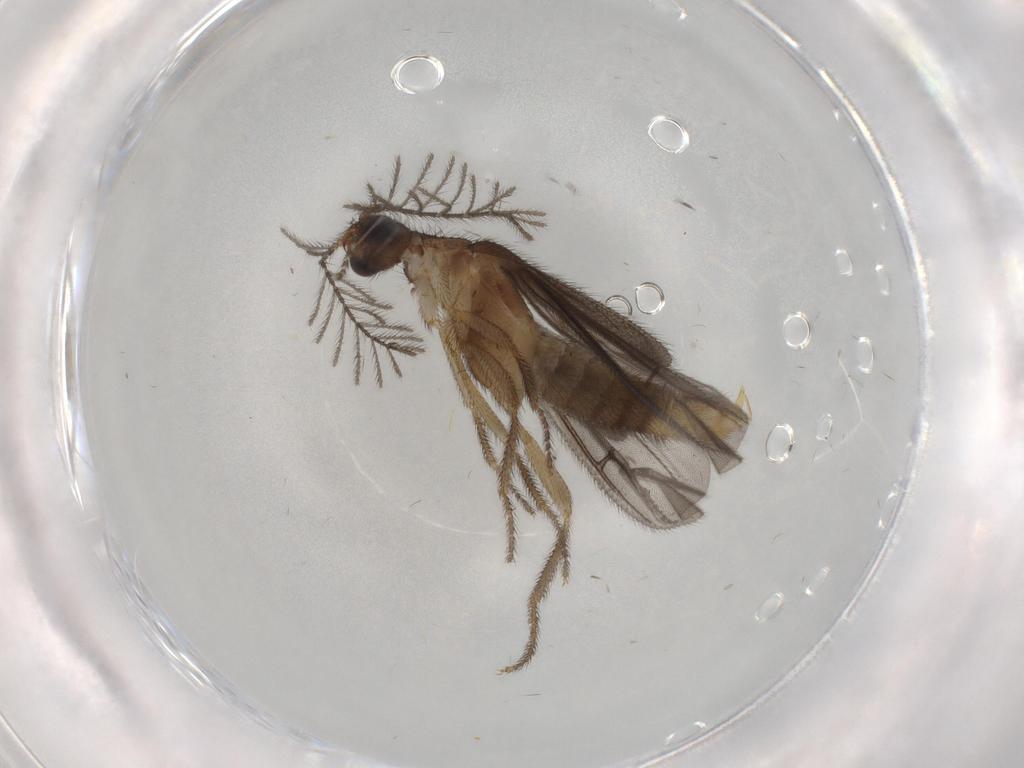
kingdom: Animalia
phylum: Arthropoda
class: Insecta
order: Coleoptera
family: Phengodidae
